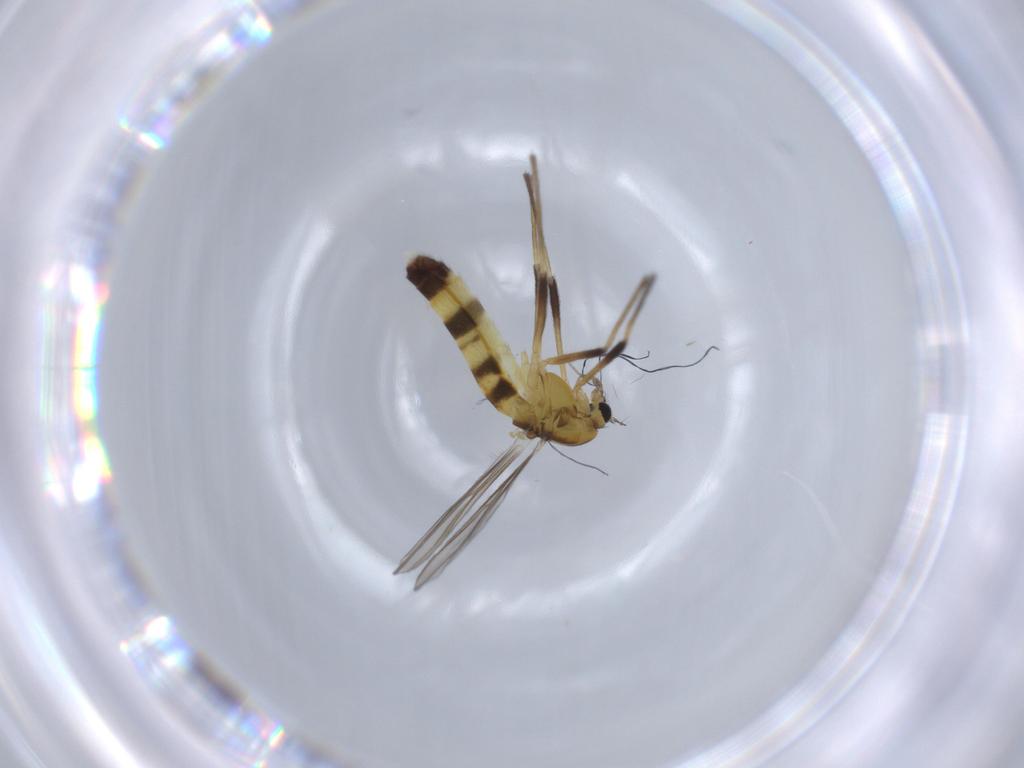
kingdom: Animalia
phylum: Arthropoda
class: Insecta
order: Diptera
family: Chironomidae
